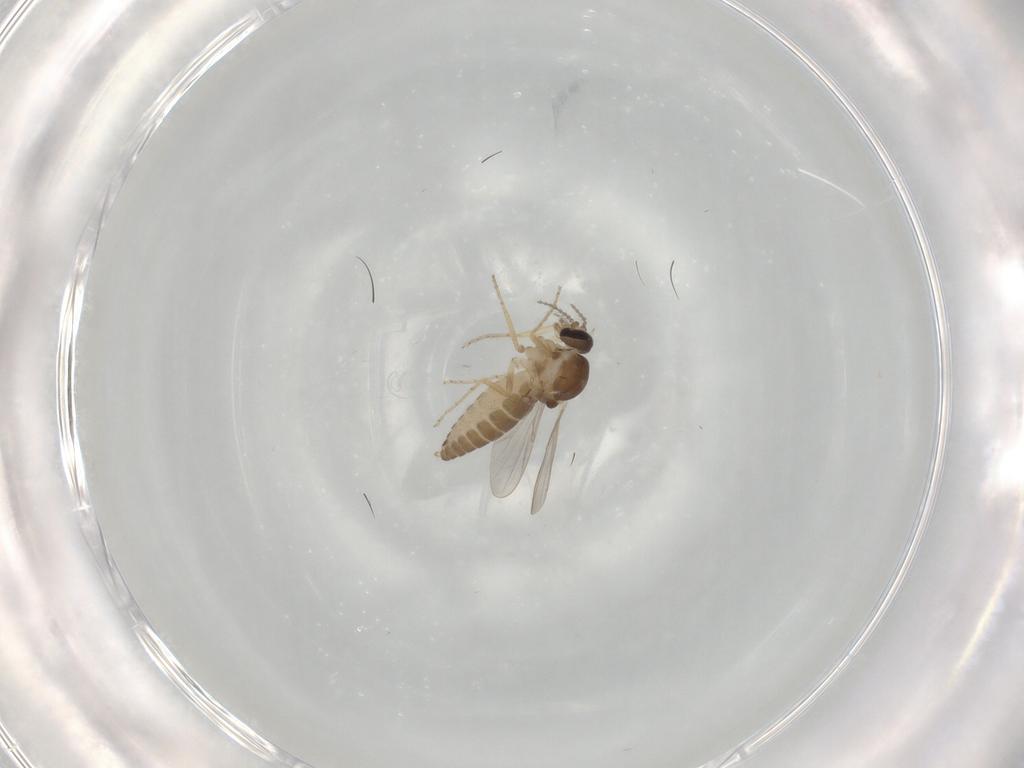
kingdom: Animalia
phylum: Arthropoda
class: Insecta
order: Diptera
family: Ceratopogonidae
